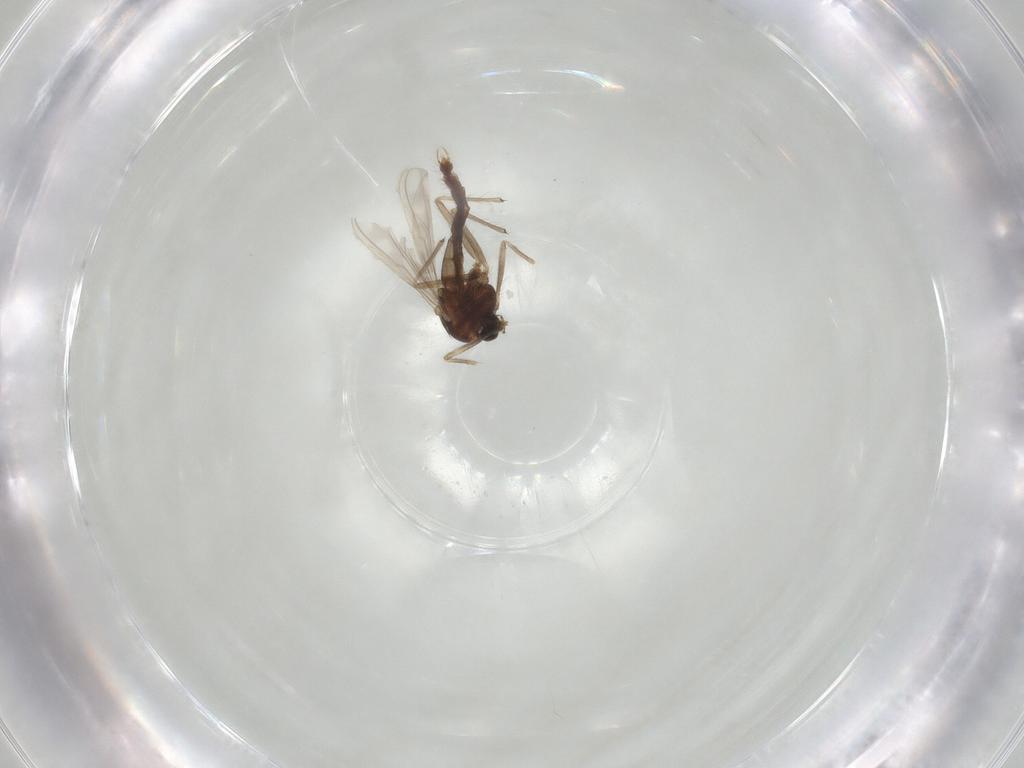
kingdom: Animalia
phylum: Arthropoda
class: Insecta
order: Diptera
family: Chironomidae
